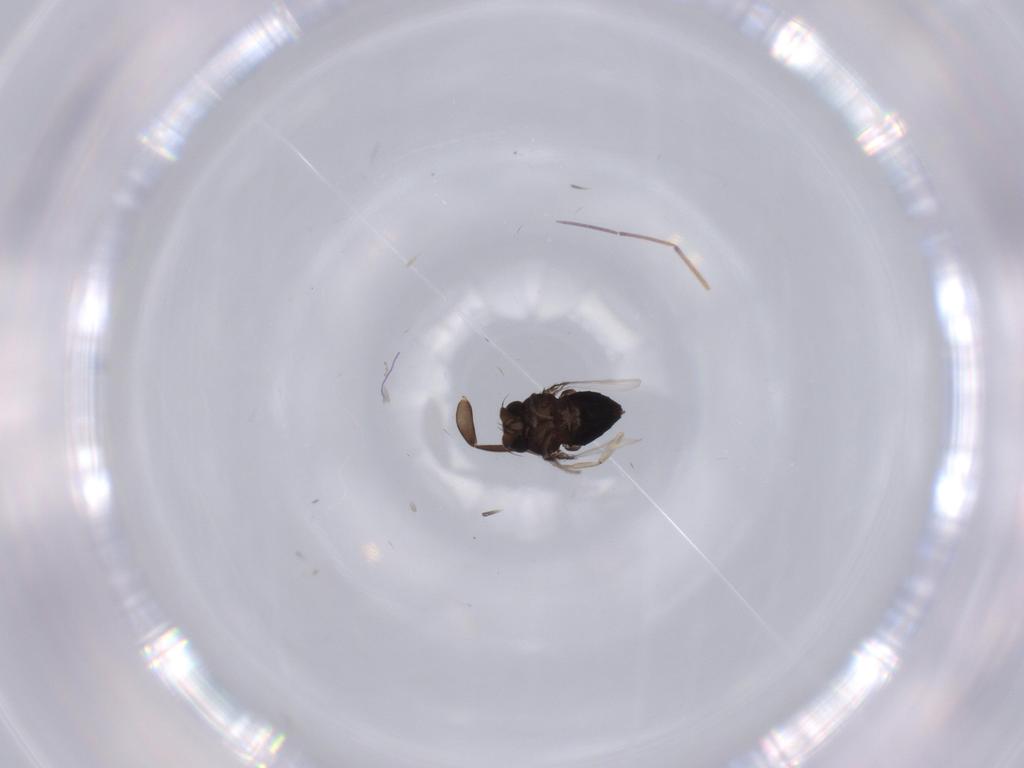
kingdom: Animalia
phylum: Arthropoda
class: Insecta
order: Diptera
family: Phoridae
